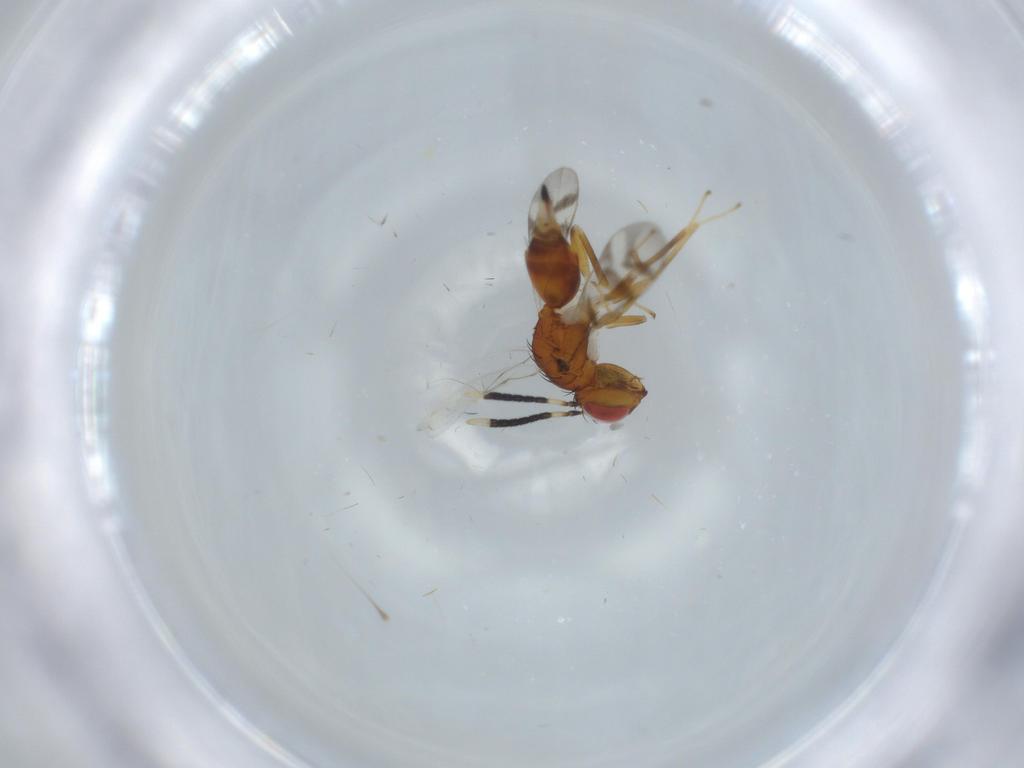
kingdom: Animalia
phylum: Arthropoda
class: Insecta
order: Hymenoptera
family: Diparidae
